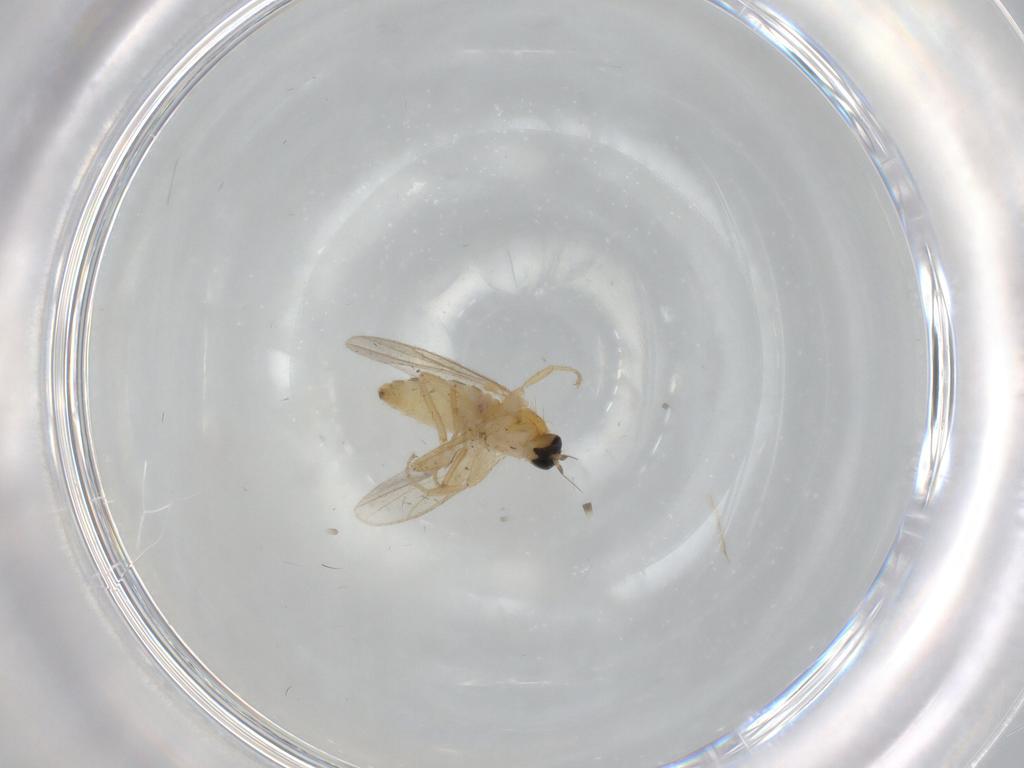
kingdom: Animalia
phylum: Arthropoda
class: Insecta
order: Diptera
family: Hybotidae
